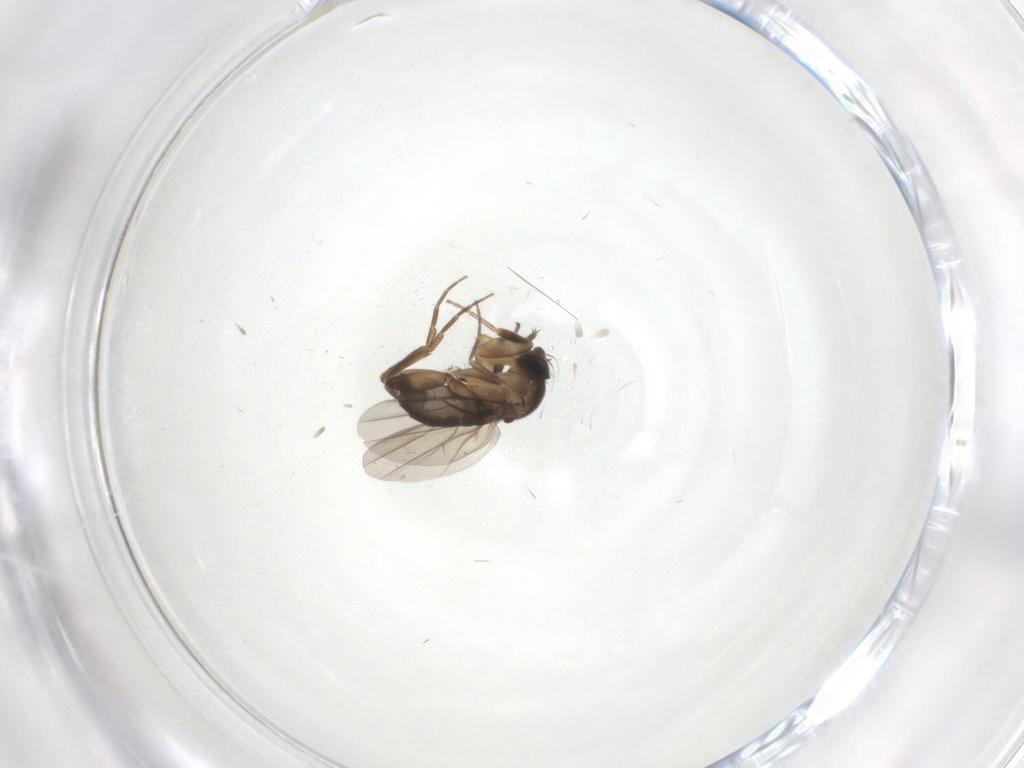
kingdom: Animalia
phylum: Arthropoda
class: Insecta
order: Diptera
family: Phoridae
